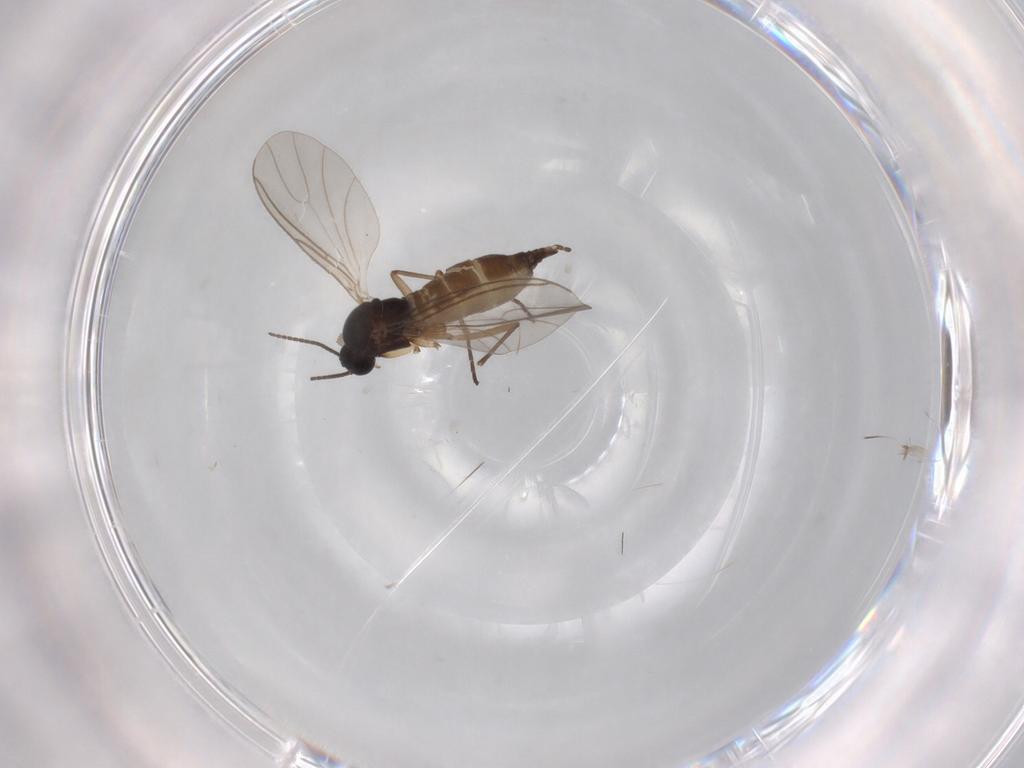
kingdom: Animalia
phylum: Arthropoda
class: Insecta
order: Diptera
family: Sciaridae
